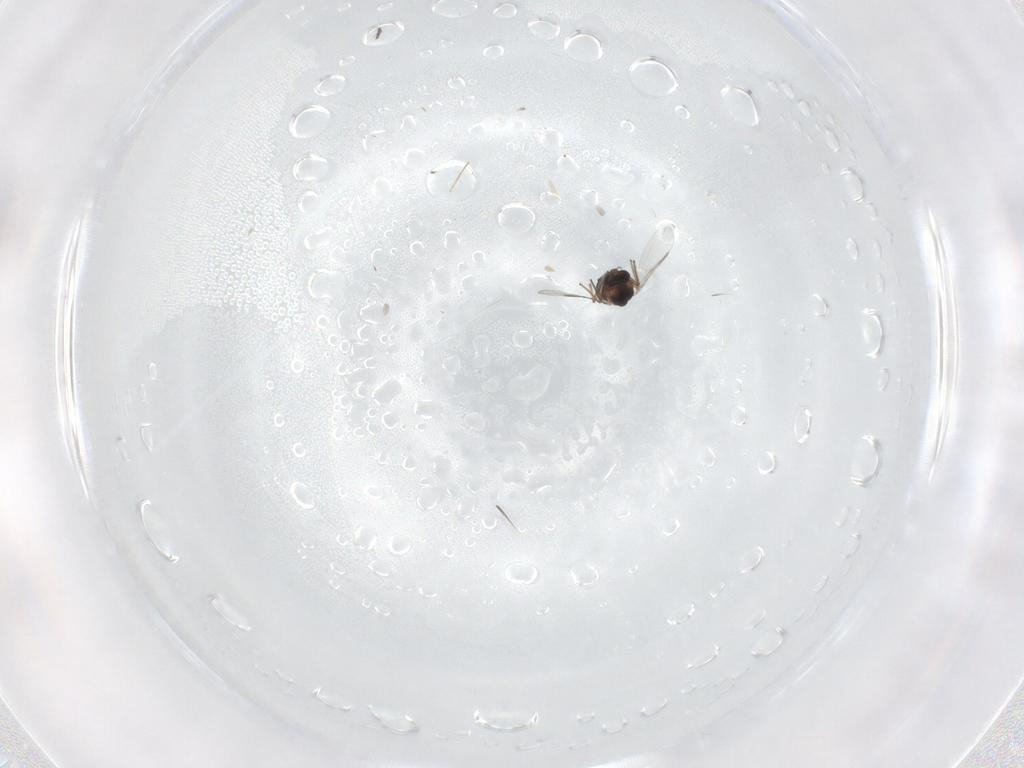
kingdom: Animalia
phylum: Arthropoda
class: Insecta
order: Diptera
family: Chironomidae
